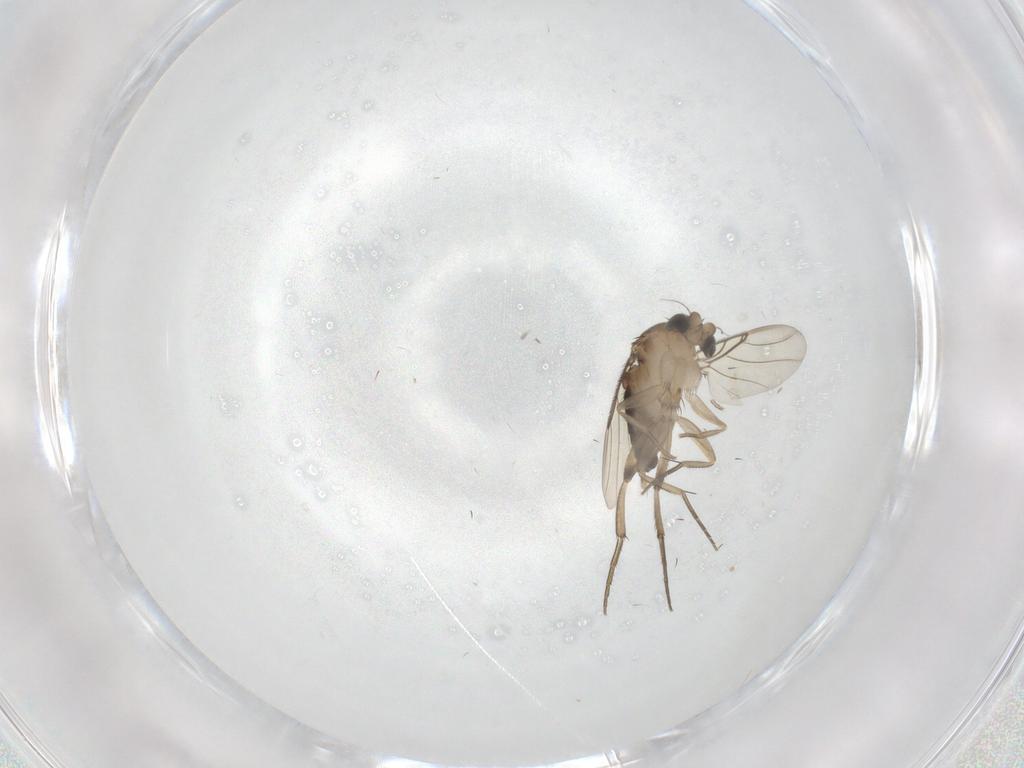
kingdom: Animalia
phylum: Arthropoda
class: Insecta
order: Diptera
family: Phoridae
